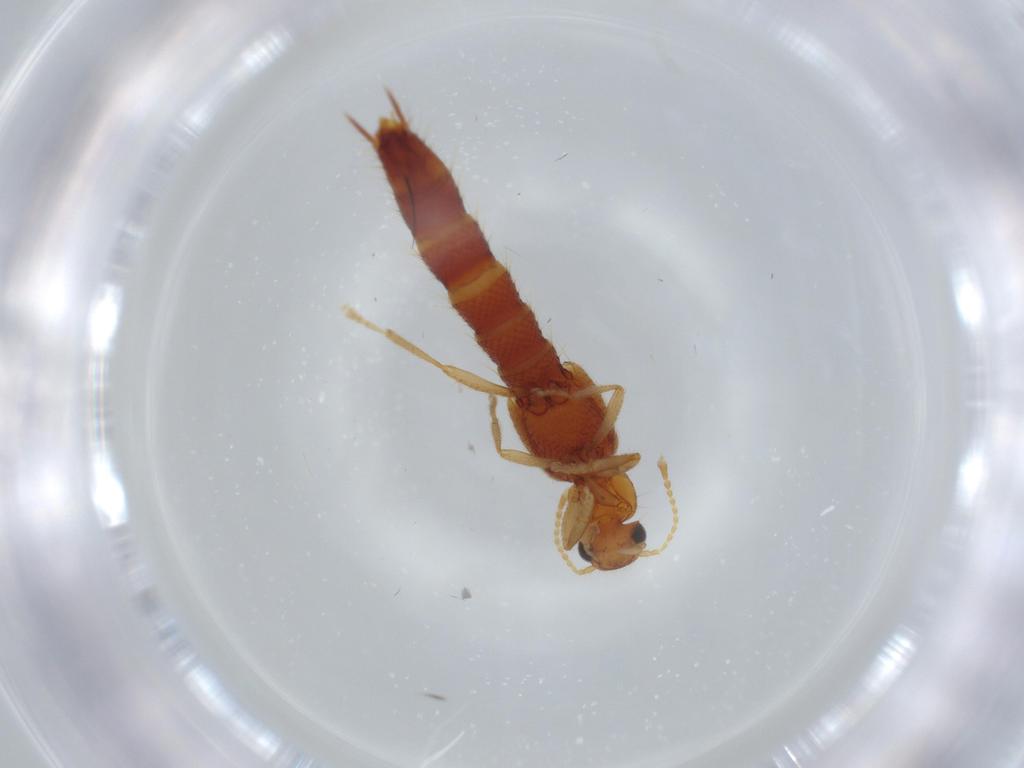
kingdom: Animalia
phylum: Arthropoda
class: Insecta
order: Coleoptera
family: Staphylinidae
